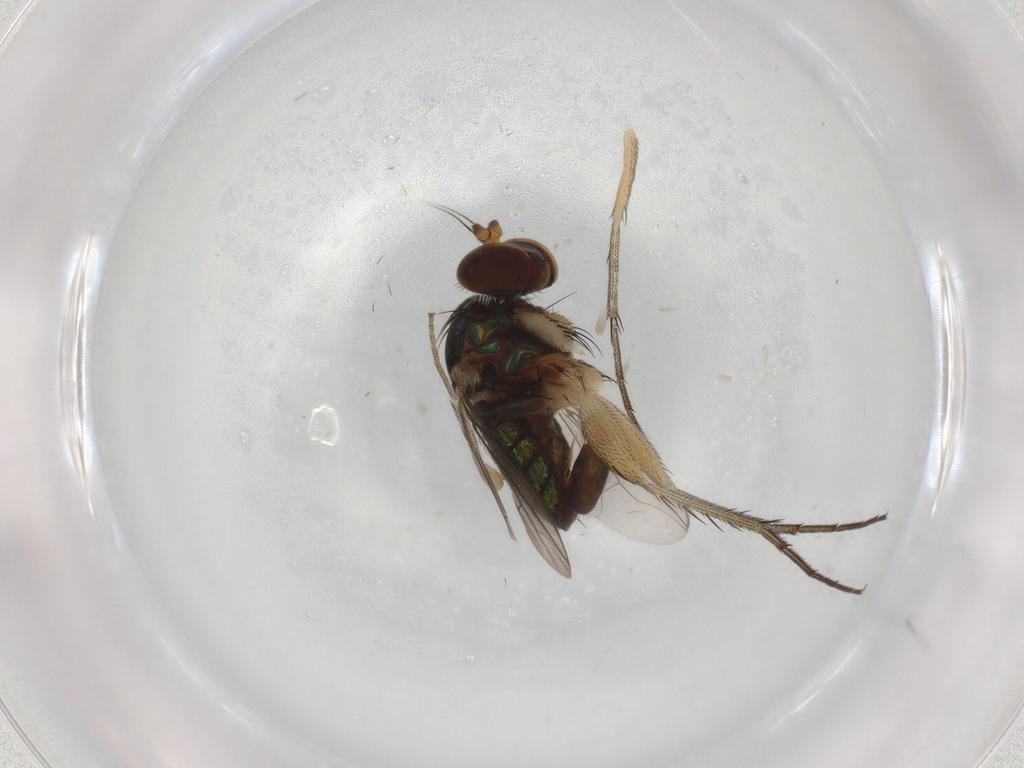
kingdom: Animalia
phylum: Arthropoda
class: Insecta
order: Diptera
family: Dolichopodidae
